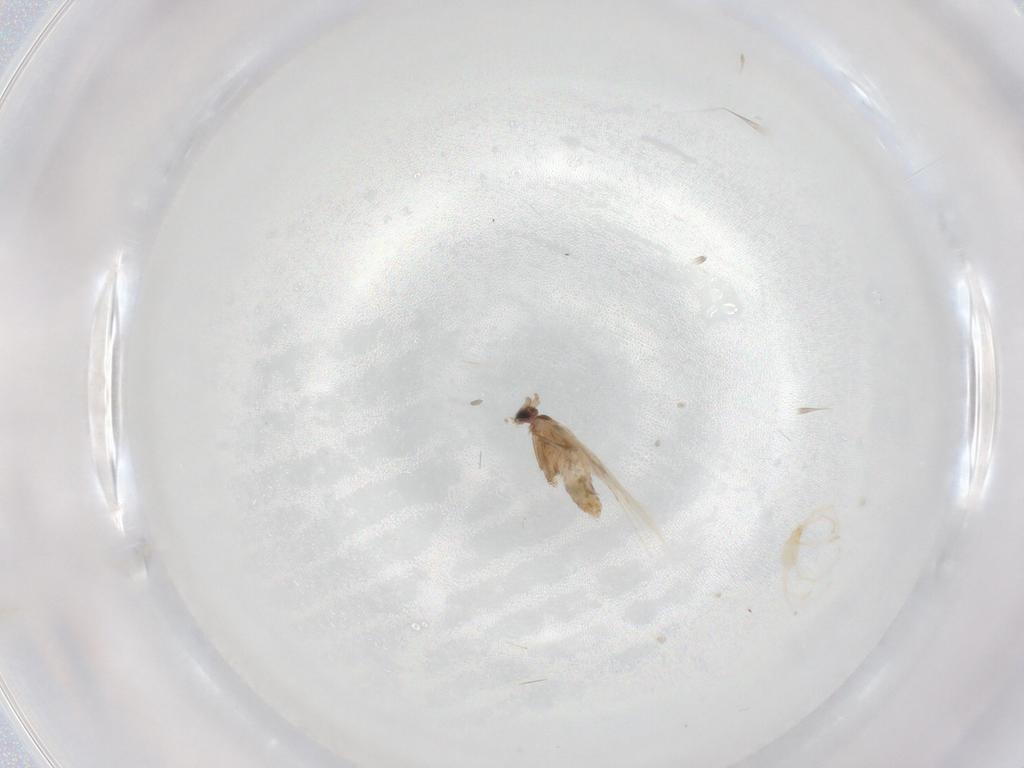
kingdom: Animalia
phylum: Arthropoda
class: Insecta
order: Lepidoptera
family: Nepticulidae
